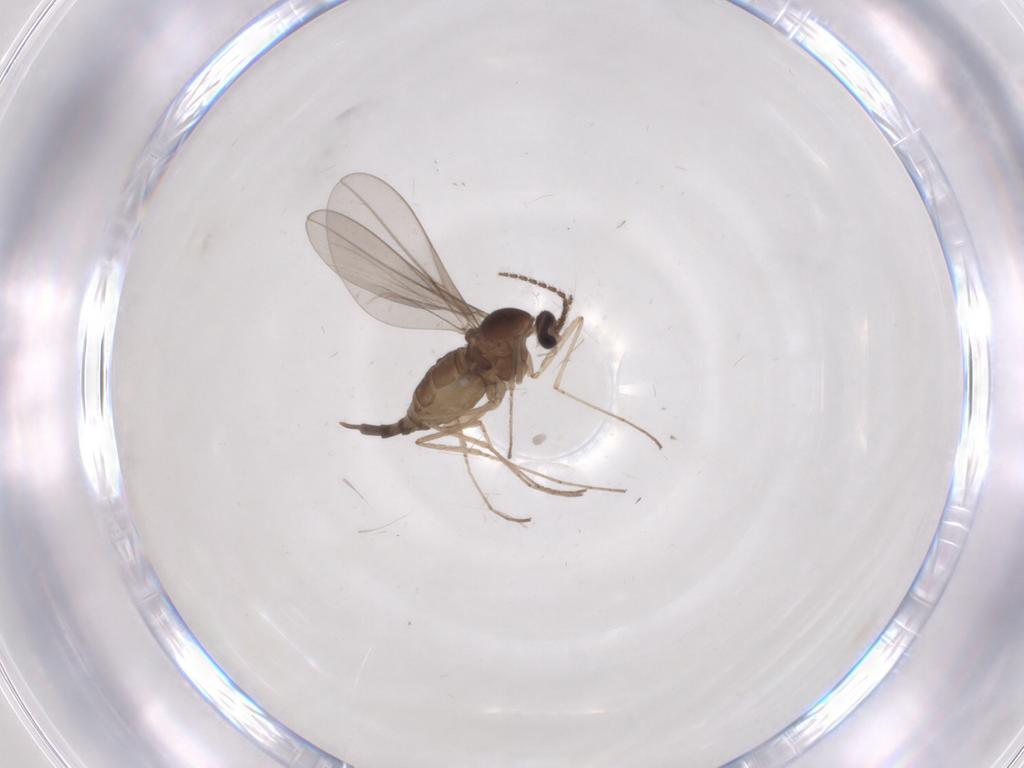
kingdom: Animalia
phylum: Arthropoda
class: Insecta
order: Diptera
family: Cecidomyiidae
